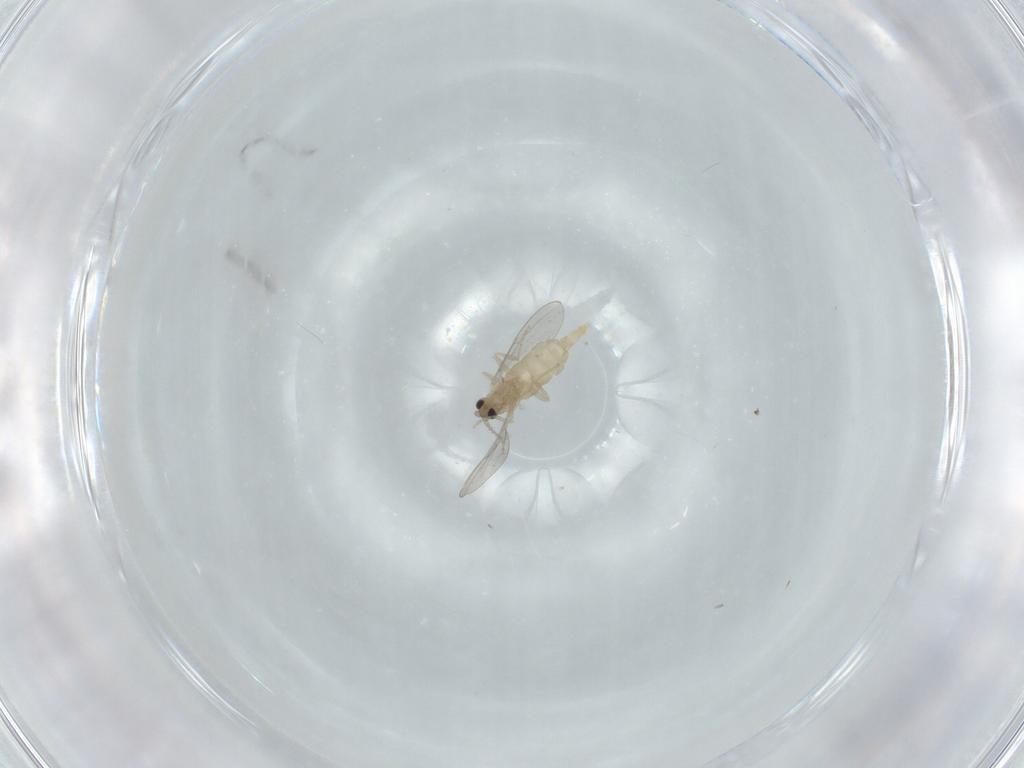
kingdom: Animalia
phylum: Arthropoda
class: Insecta
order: Diptera
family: Cecidomyiidae
